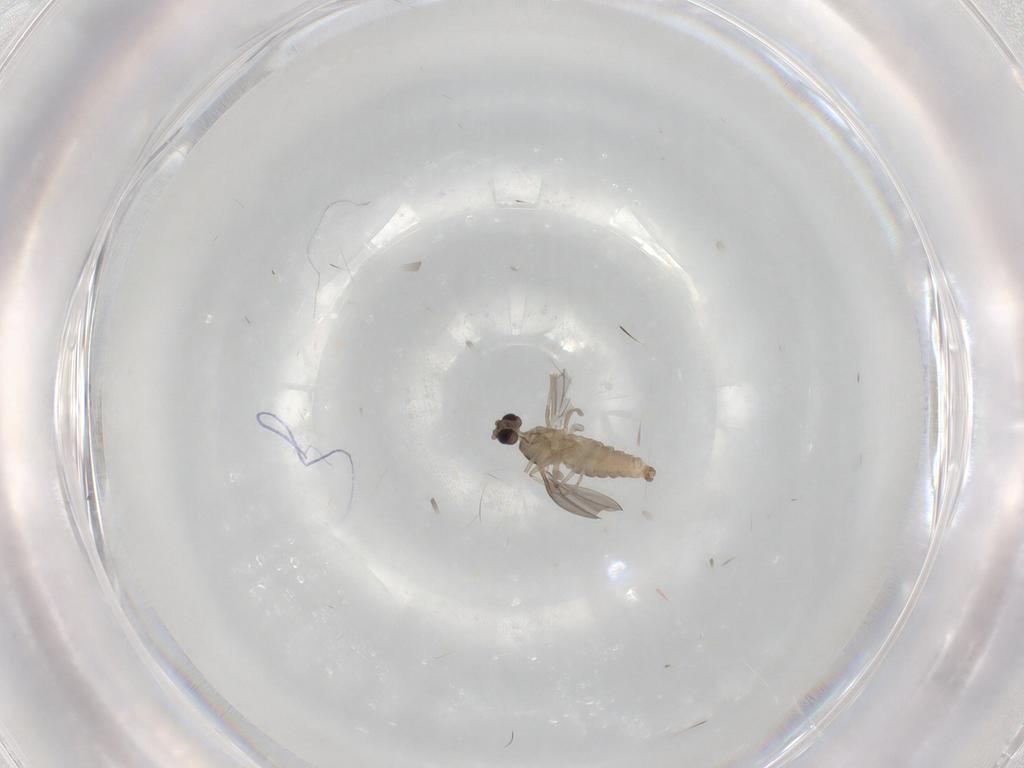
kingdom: Animalia
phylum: Arthropoda
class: Insecta
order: Diptera
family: Cecidomyiidae
